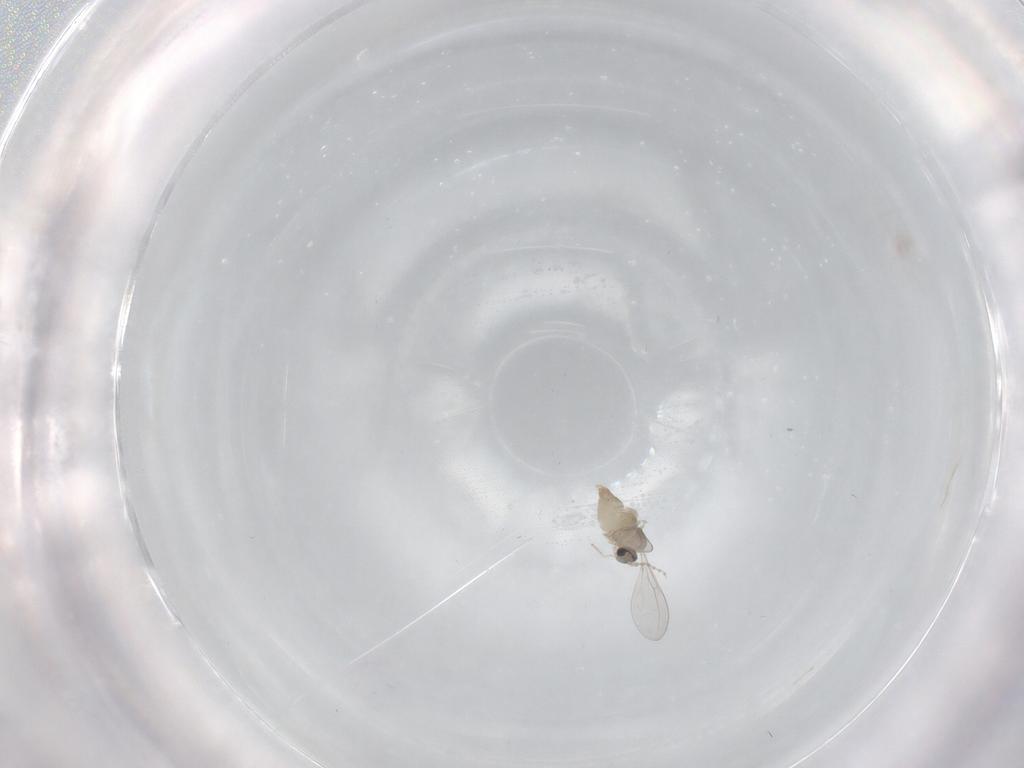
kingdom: Animalia
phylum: Arthropoda
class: Insecta
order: Diptera
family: Cecidomyiidae
